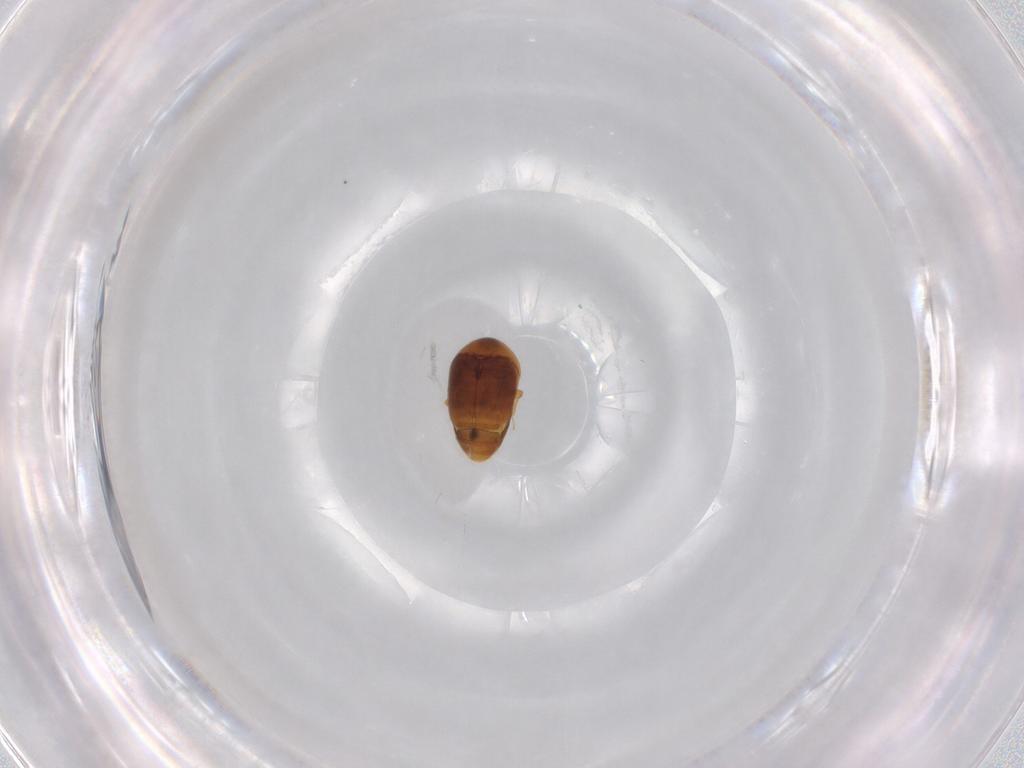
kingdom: Animalia
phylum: Arthropoda
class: Insecta
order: Coleoptera
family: Corylophidae
